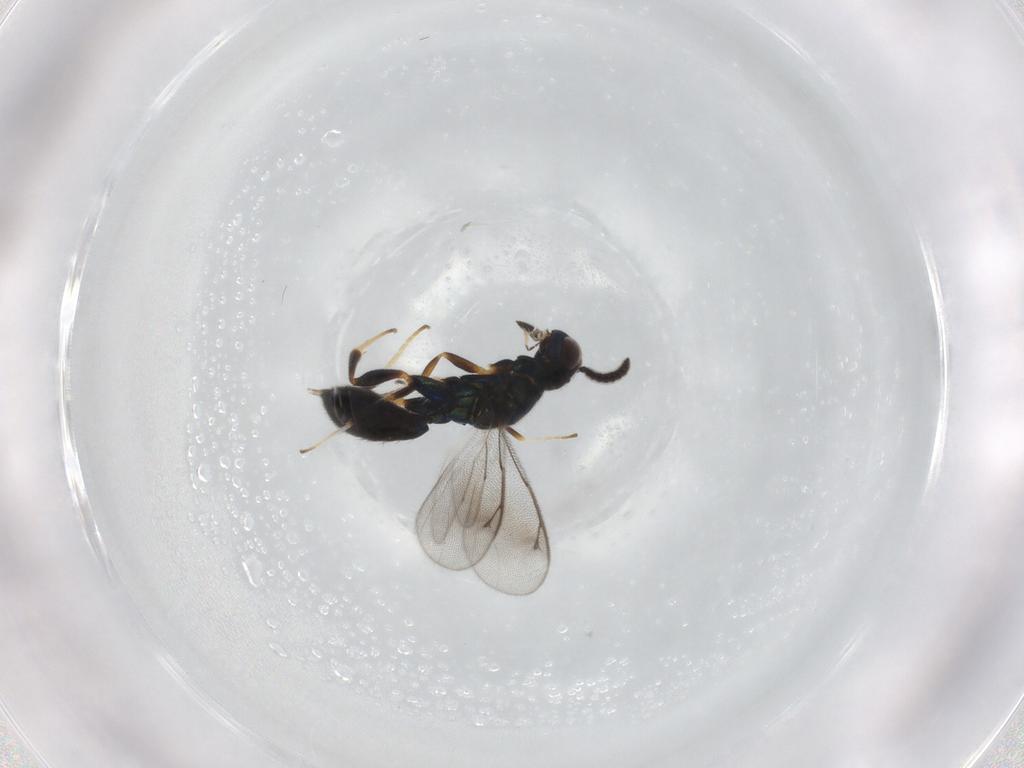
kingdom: Animalia
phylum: Arthropoda
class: Insecta
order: Hymenoptera
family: Cleonyminae
